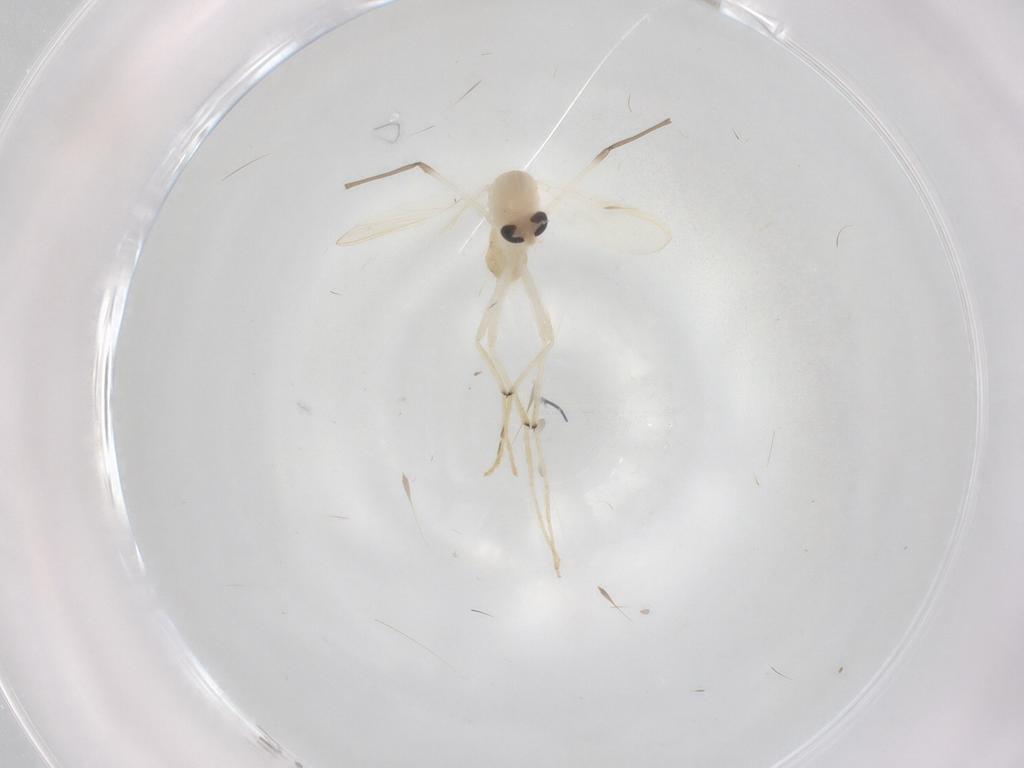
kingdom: Animalia
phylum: Arthropoda
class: Insecta
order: Diptera
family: Chironomidae
